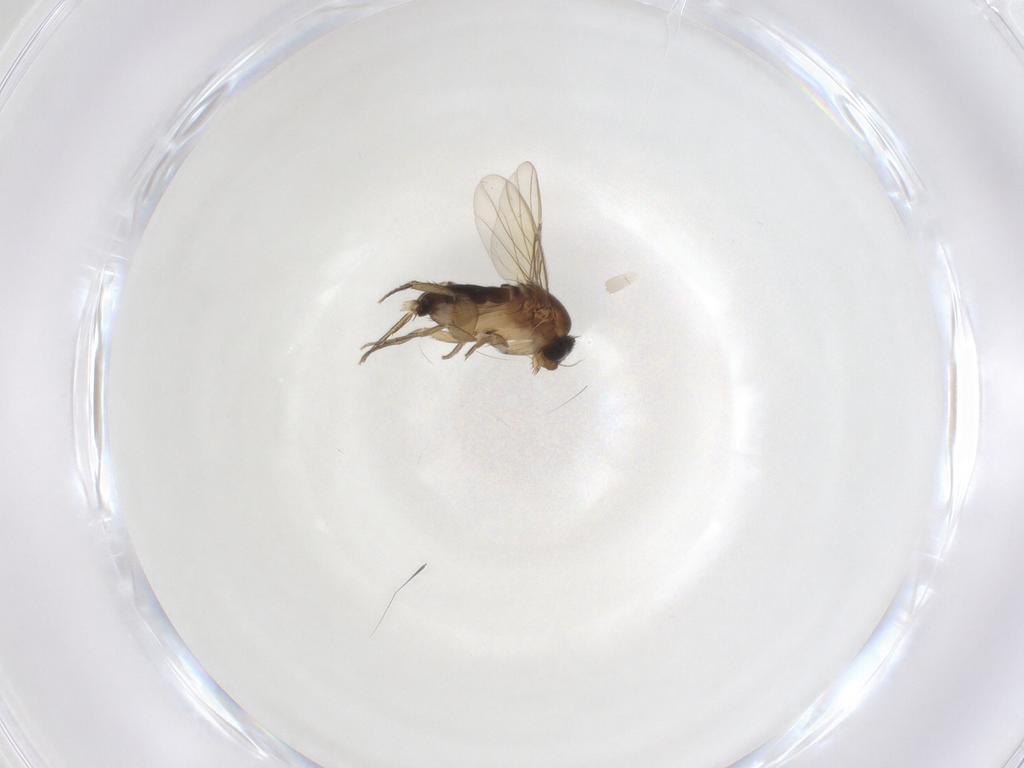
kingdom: Animalia
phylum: Arthropoda
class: Insecta
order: Diptera
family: Phoridae
